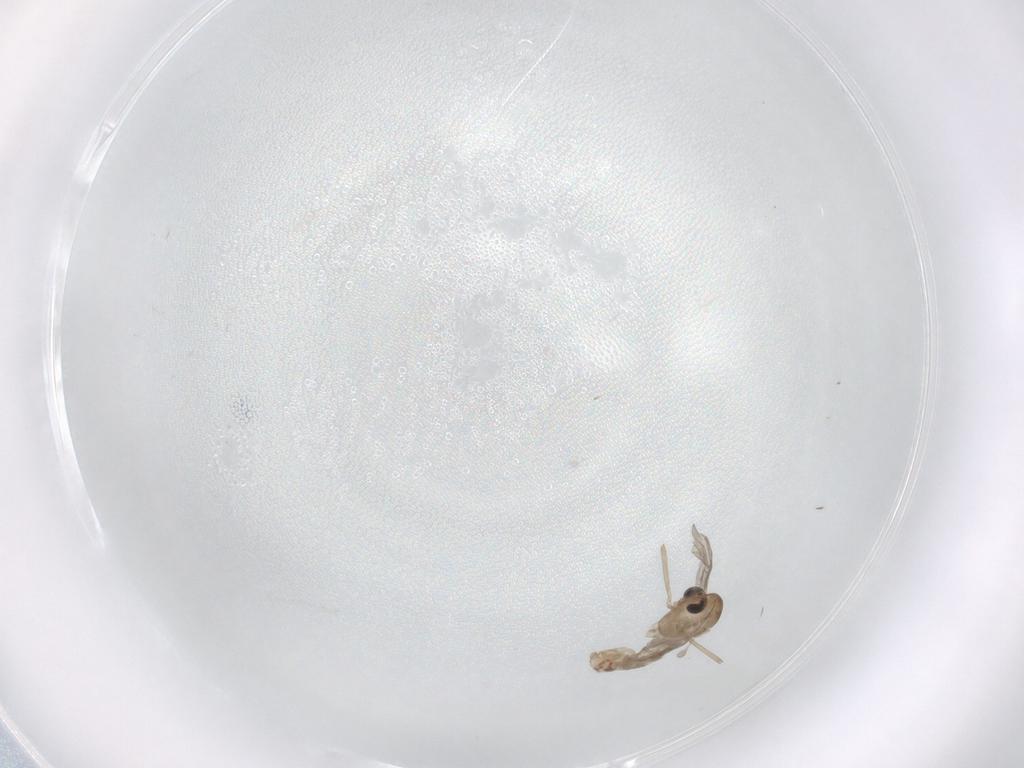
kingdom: Animalia
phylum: Arthropoda
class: Insecta
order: Diptera
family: Chironomidae
